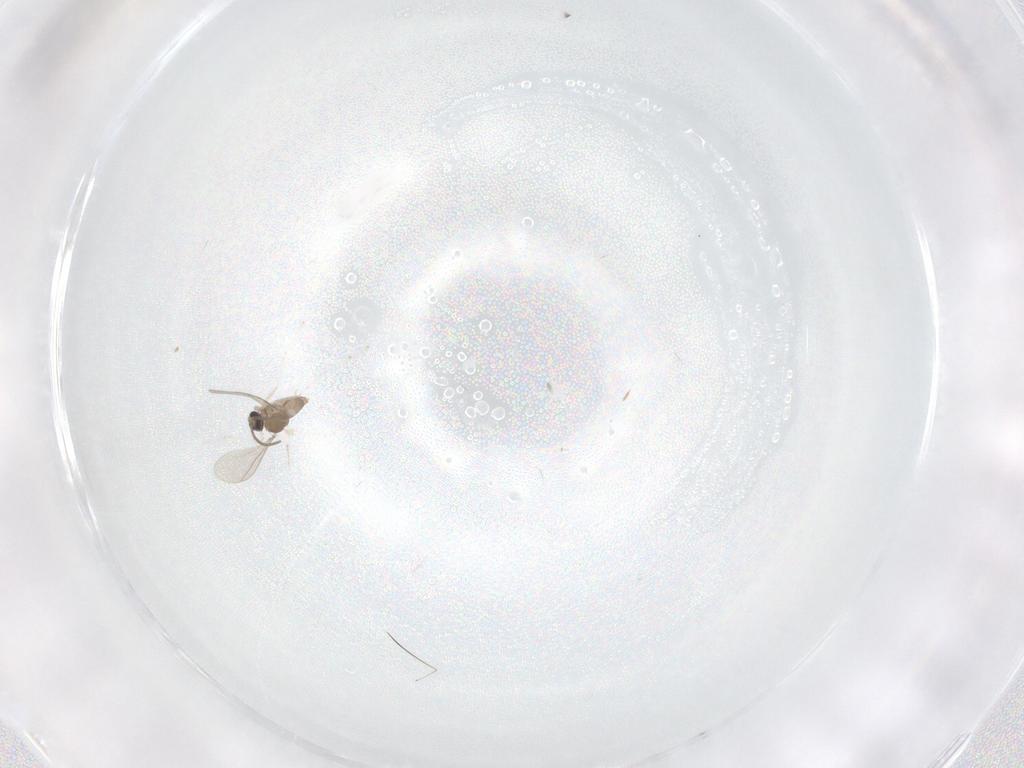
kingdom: Animalia
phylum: Arthropoda
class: Insecta
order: Diptera
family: Cecidomyiidae
